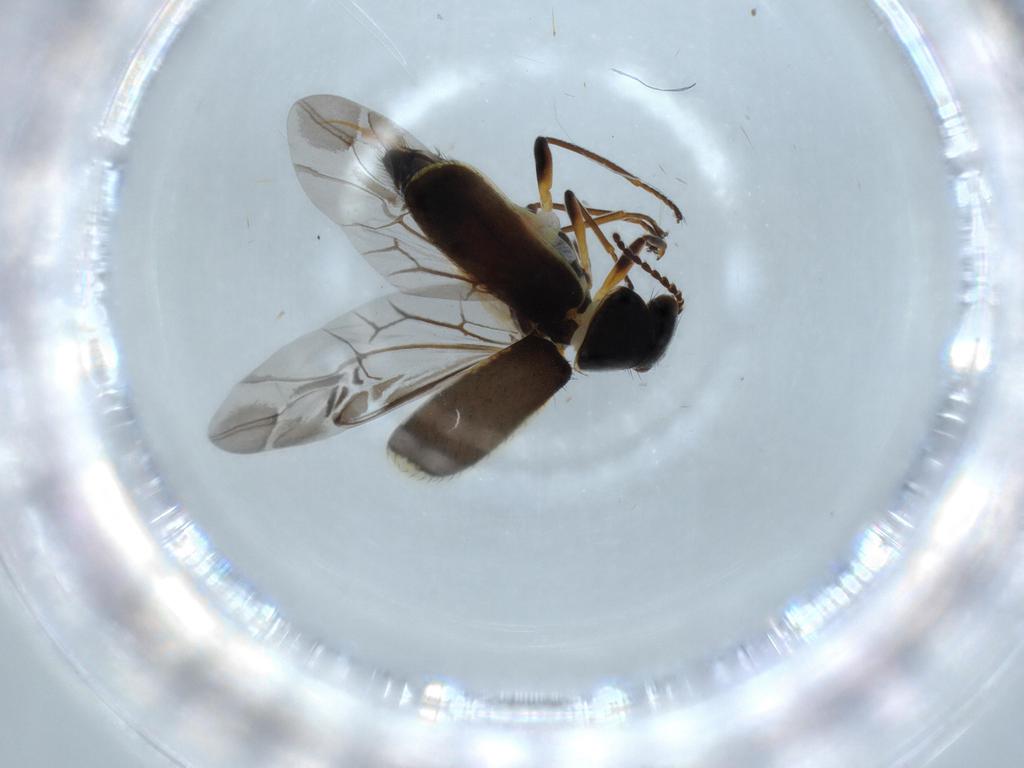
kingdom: Animalia
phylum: Arthropoda
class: Insecta
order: Coleoptera
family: Melyridae
